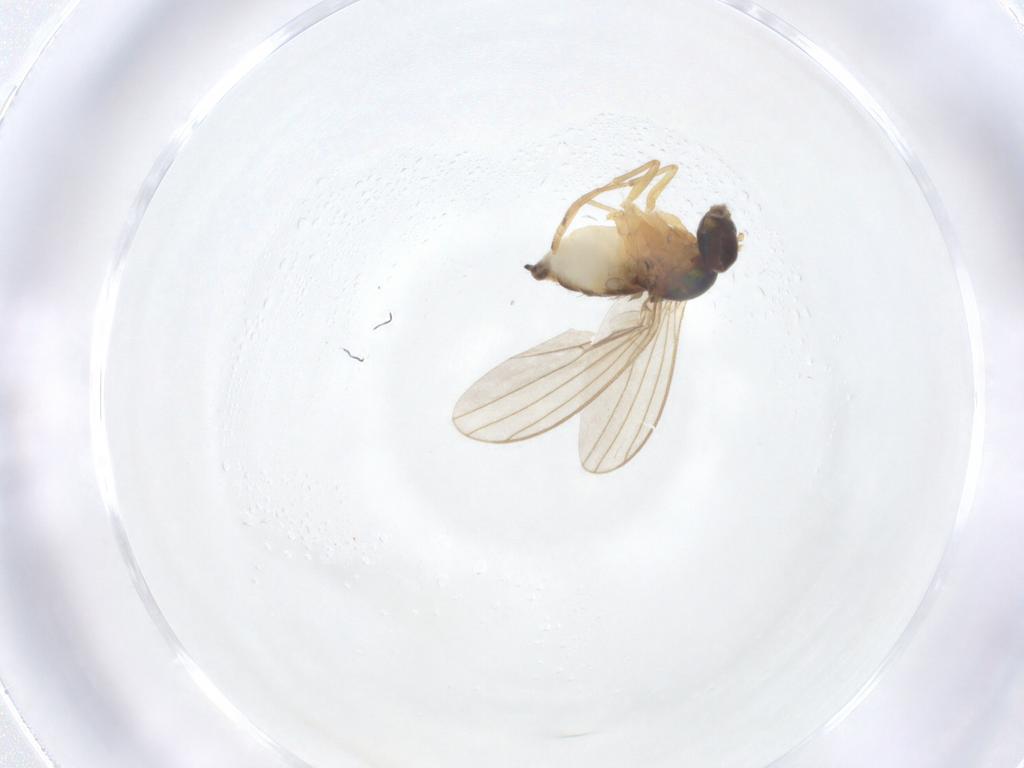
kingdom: Animalia
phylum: Arthropoda
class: Insecta
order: Diptera
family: Dolichopodidae
